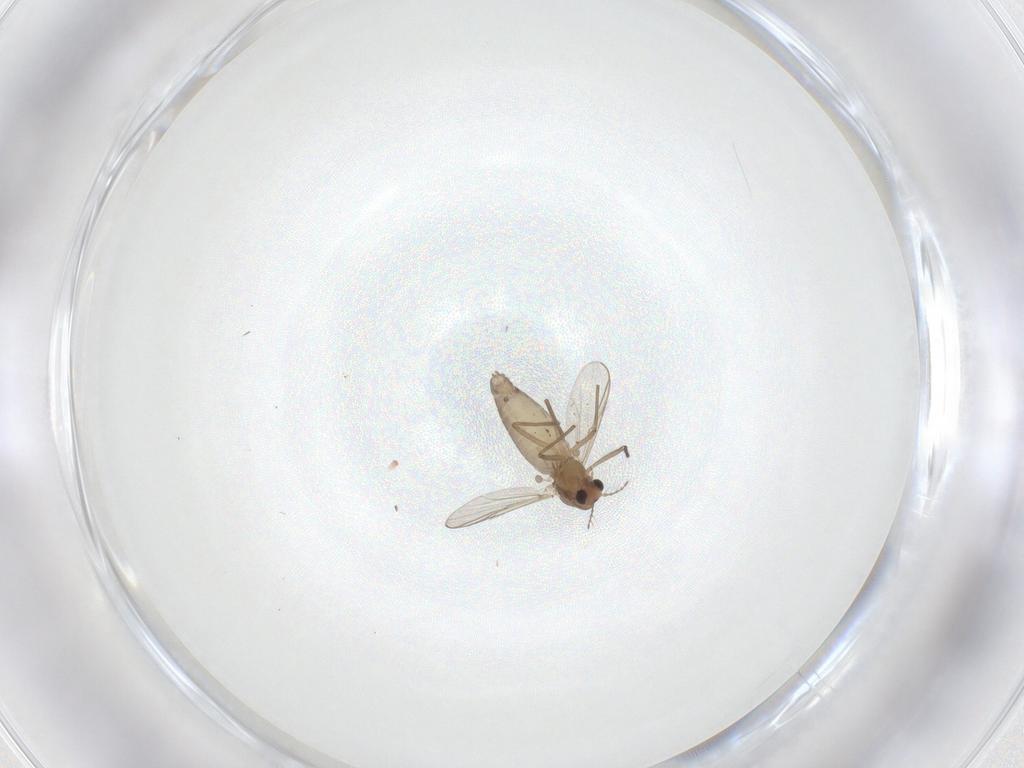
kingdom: Animalia
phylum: Arthropoda
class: Insecta
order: Diptera
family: Chironomidae
